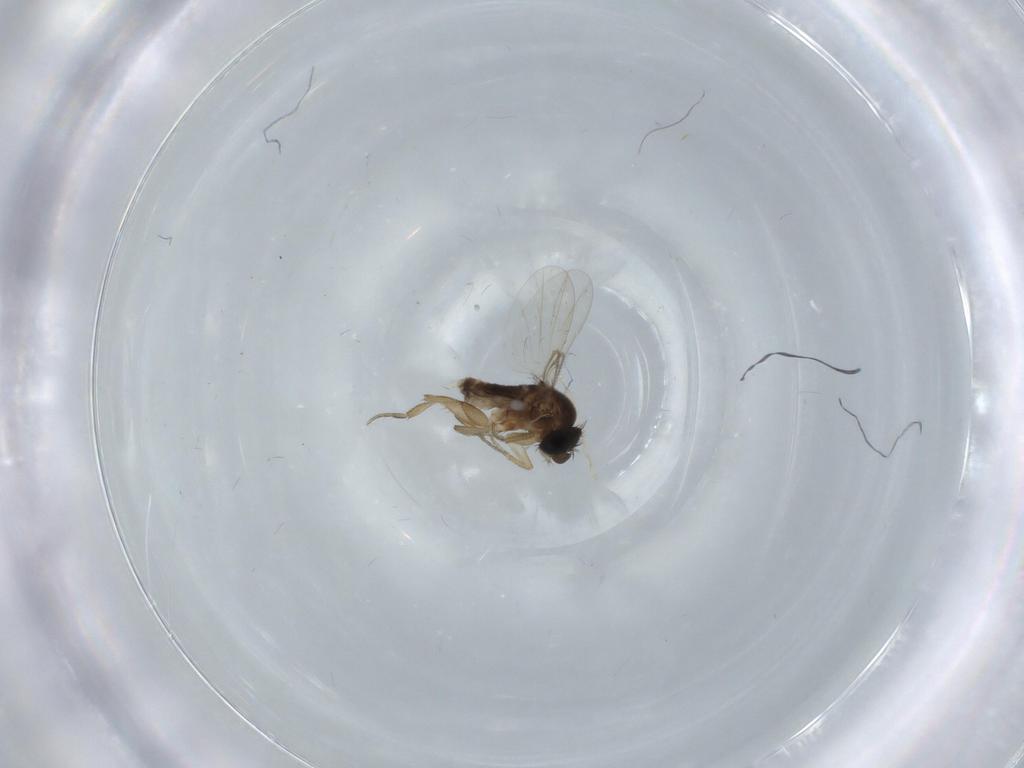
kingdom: Animalia
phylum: Arthropoda
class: Insecta
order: Diptera
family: Phoridae
